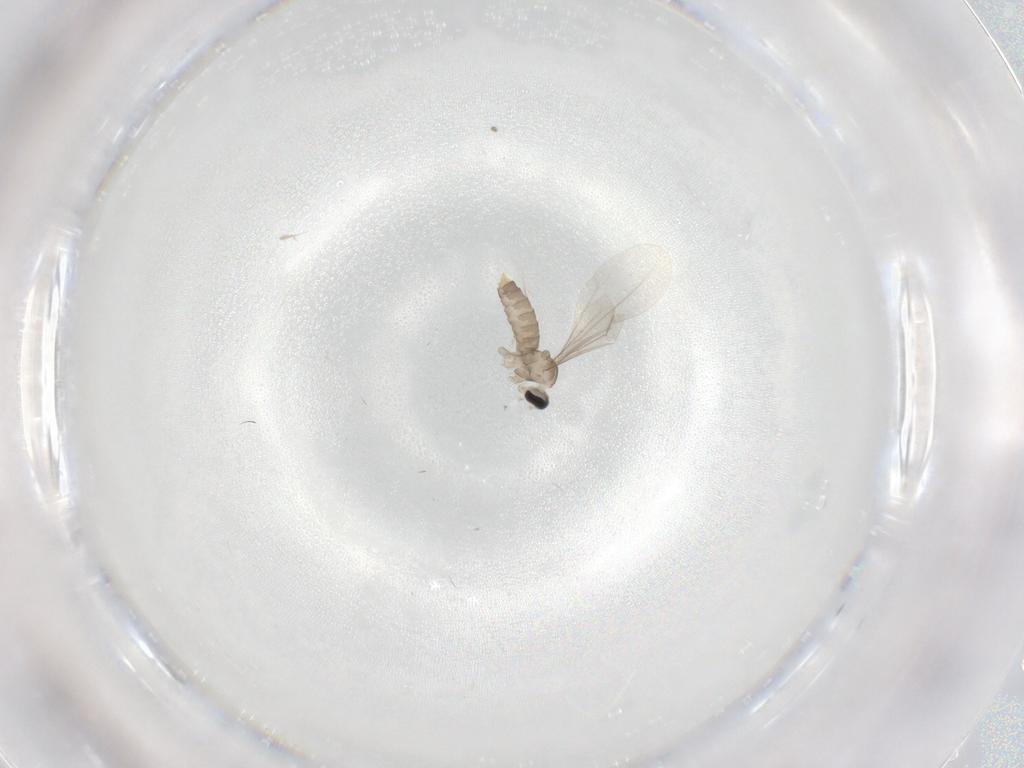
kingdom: Animalia
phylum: Arthropoda
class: Insecta
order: Diptera
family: Cecidomyiidae
